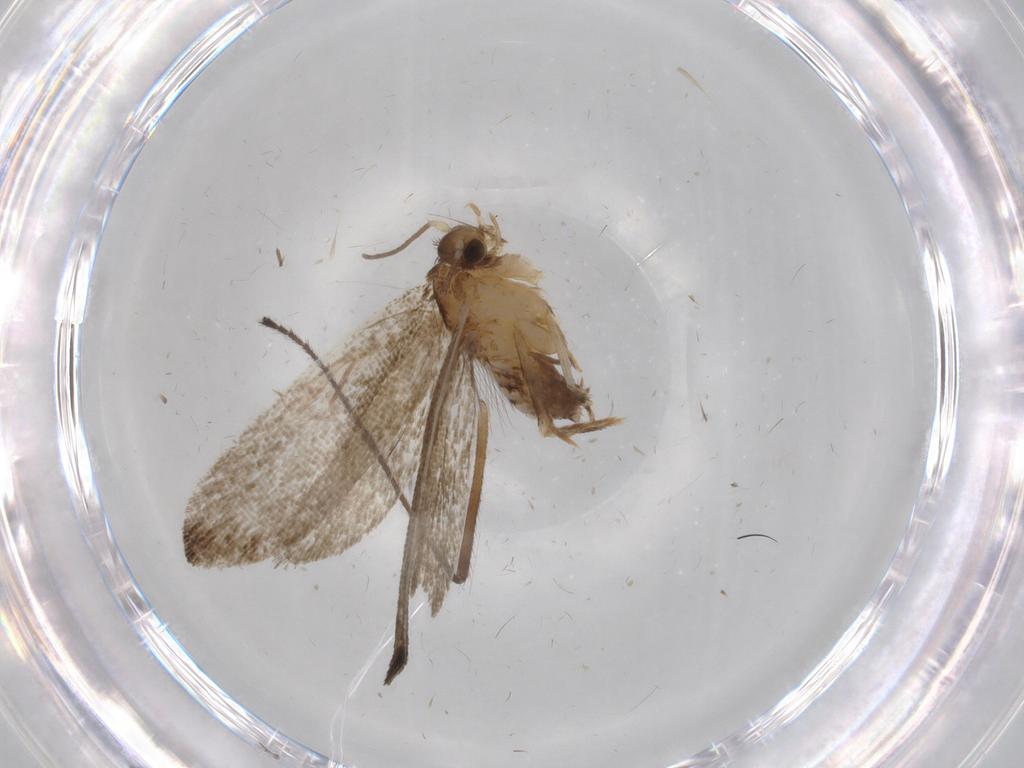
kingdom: Animalia
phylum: Arthropoda
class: Insecta
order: Lepidoptera
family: Tineidae
